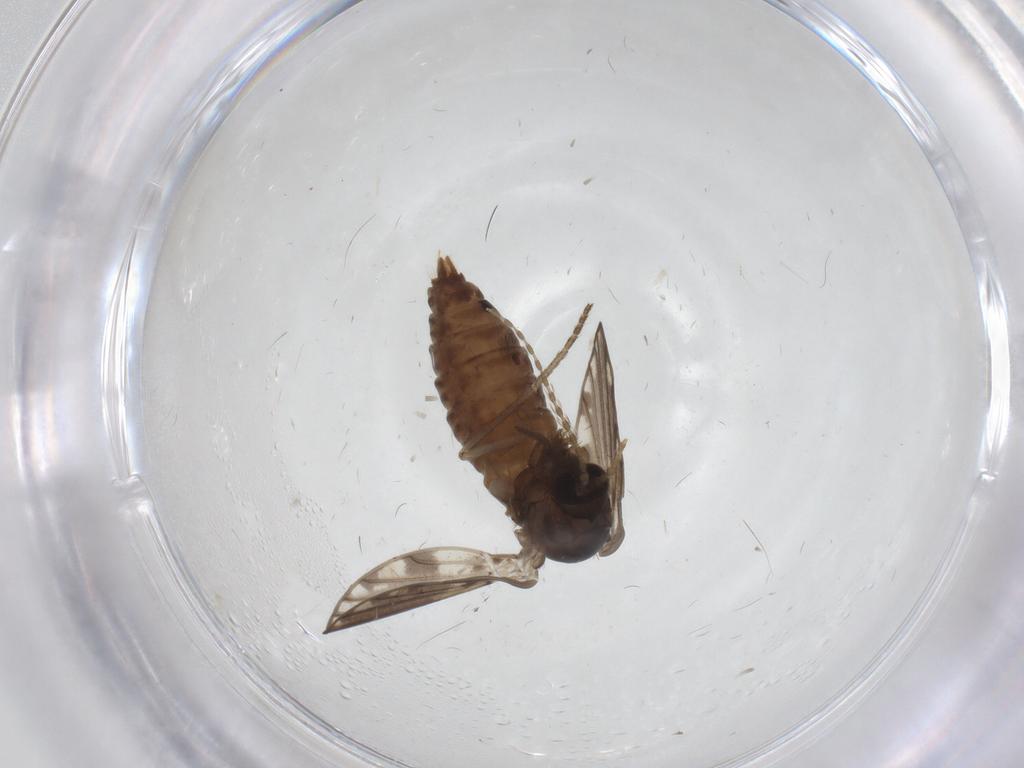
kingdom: Animalia
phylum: Arthropoda
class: Insecta
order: Diptera
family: Psychodidae
